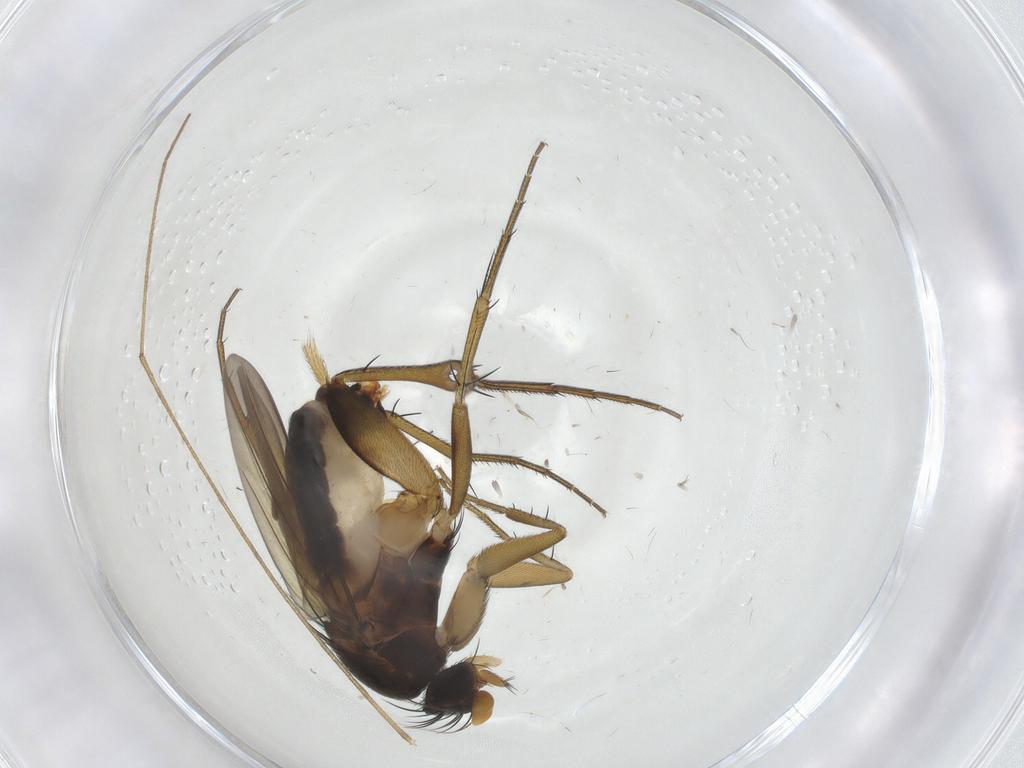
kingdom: Animalia
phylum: Arthropoda
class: Insecta
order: Diptera
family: Phoridae
